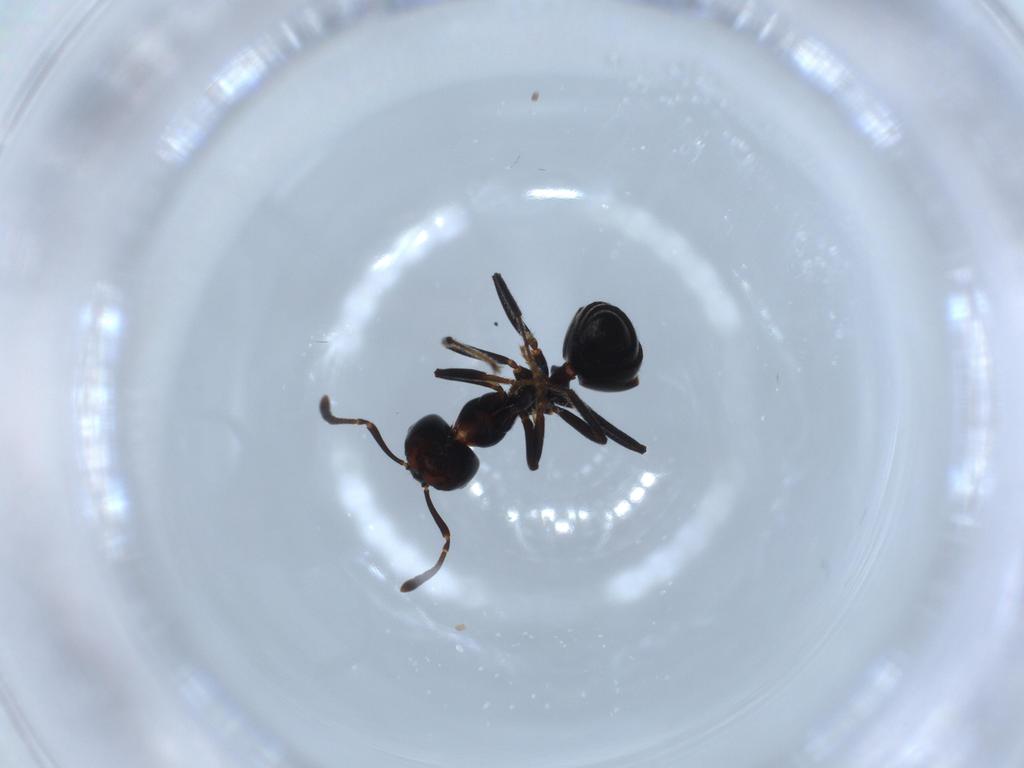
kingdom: Animalia
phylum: Arthropoda
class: Insecta
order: Hymenoptera
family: Formicidae
